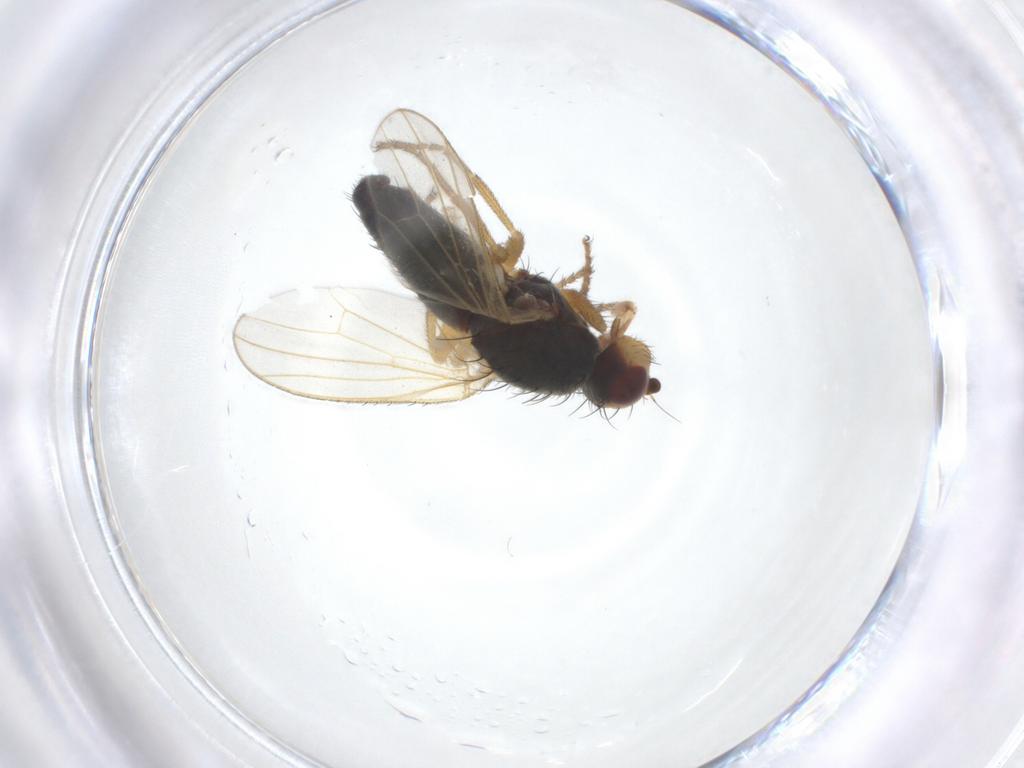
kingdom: Animalia
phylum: Arthropoda
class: Insecta
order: Diptera
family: Heleomyzidae
